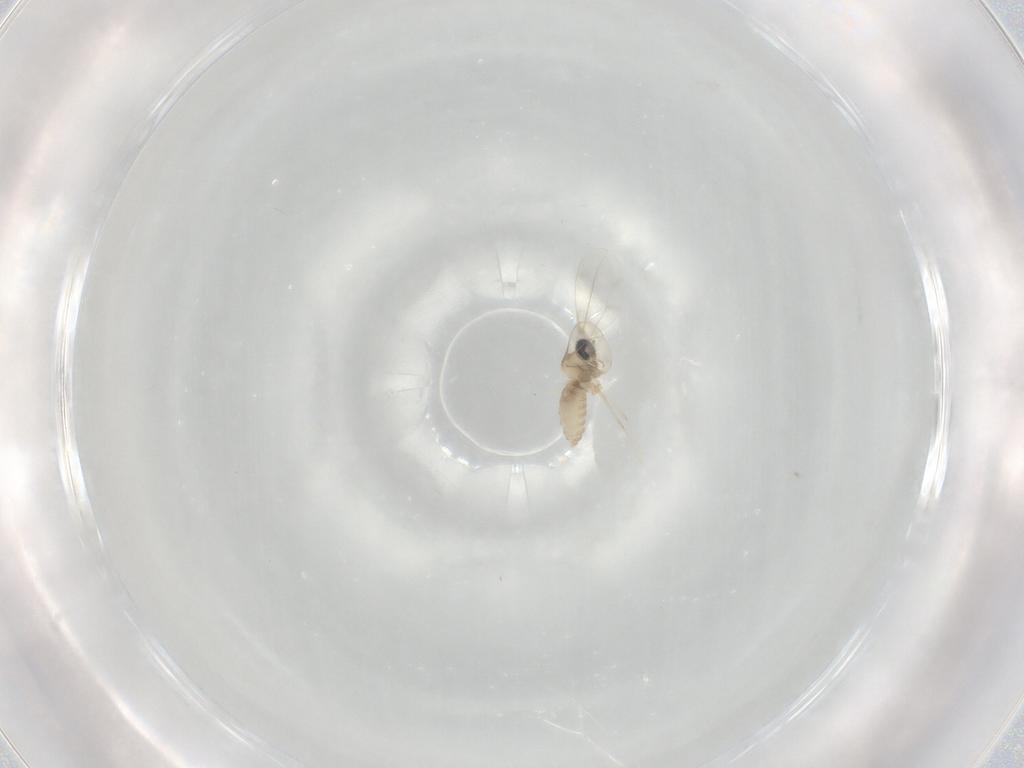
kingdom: Animalia
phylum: Arthropoda
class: Insecta
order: Diptera
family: Cecidomyiidae
